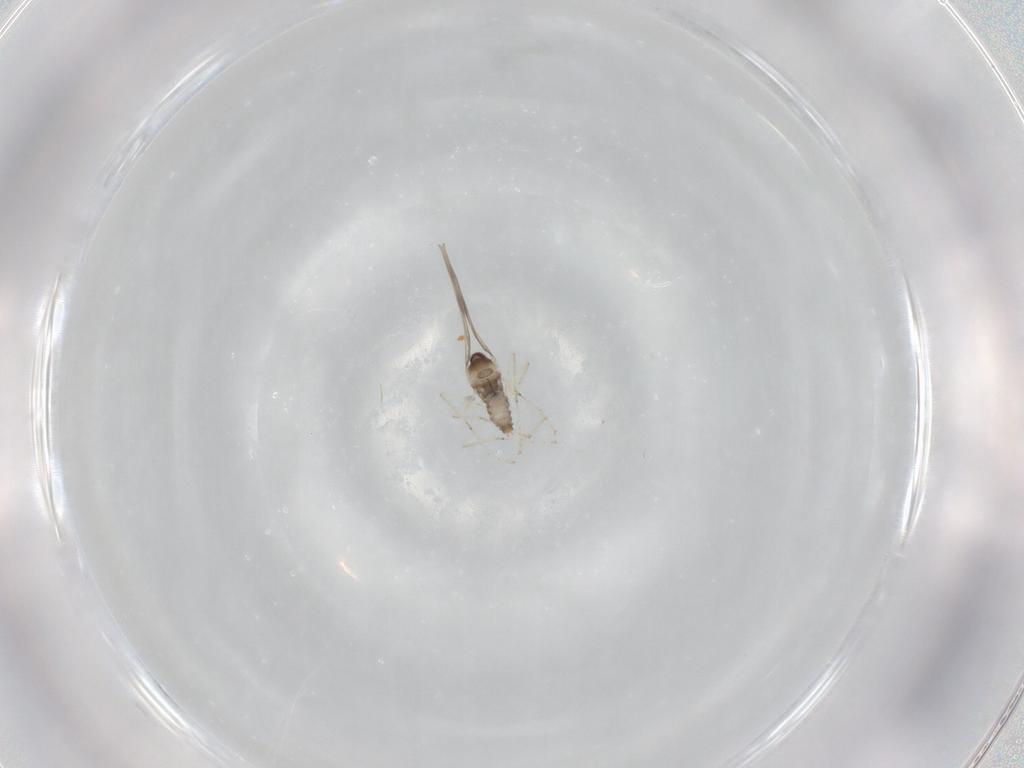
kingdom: Animalia
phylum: Arthropoda
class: Insecta
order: Diptera
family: Cecidomyiidae
